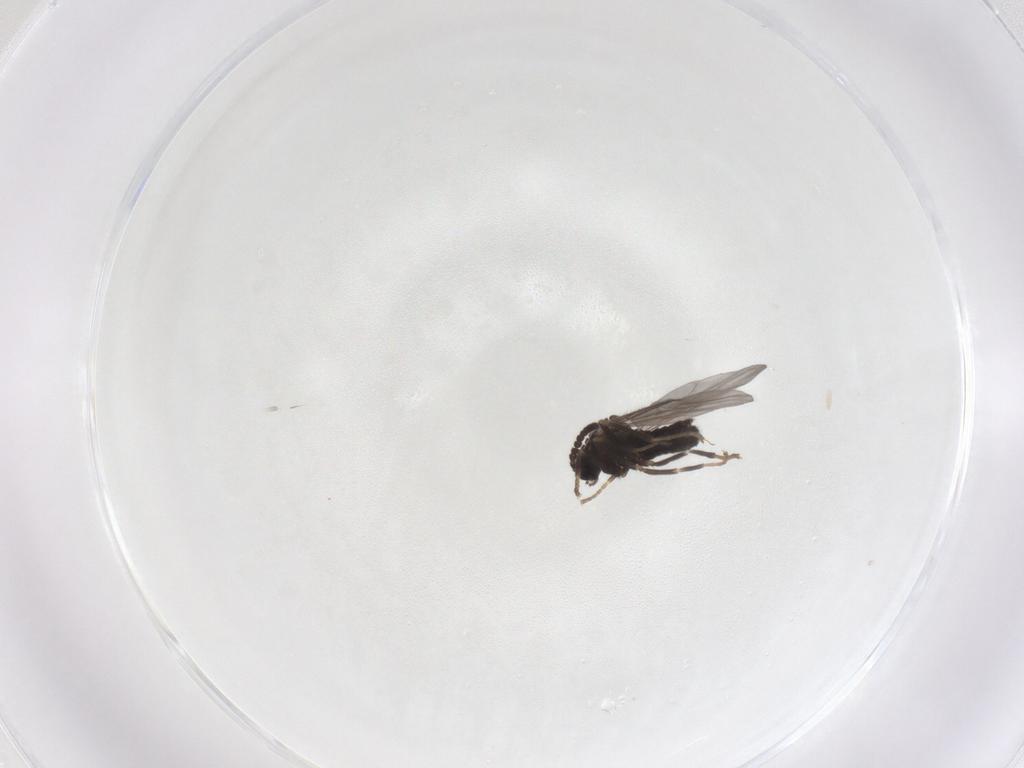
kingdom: Animalia
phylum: Arthropoda
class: Insecta
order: Diptera
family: Scatopsidae
